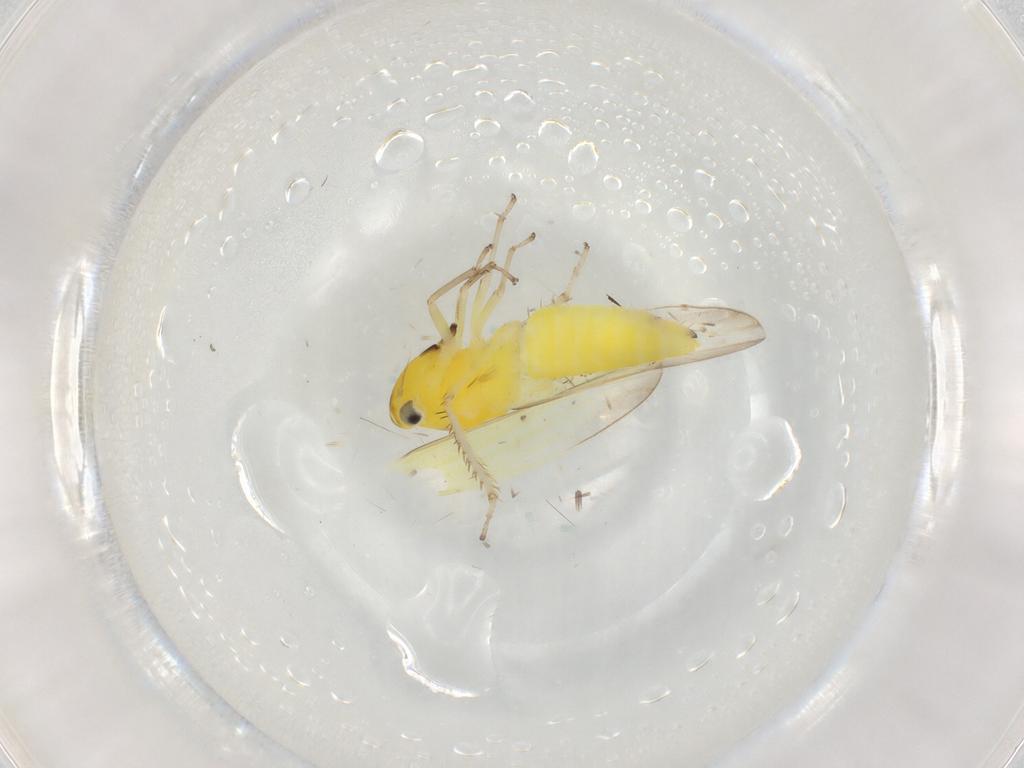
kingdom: Animalia
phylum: Arthropoda
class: Insecta
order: Hemiptera
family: Cicadellidae
